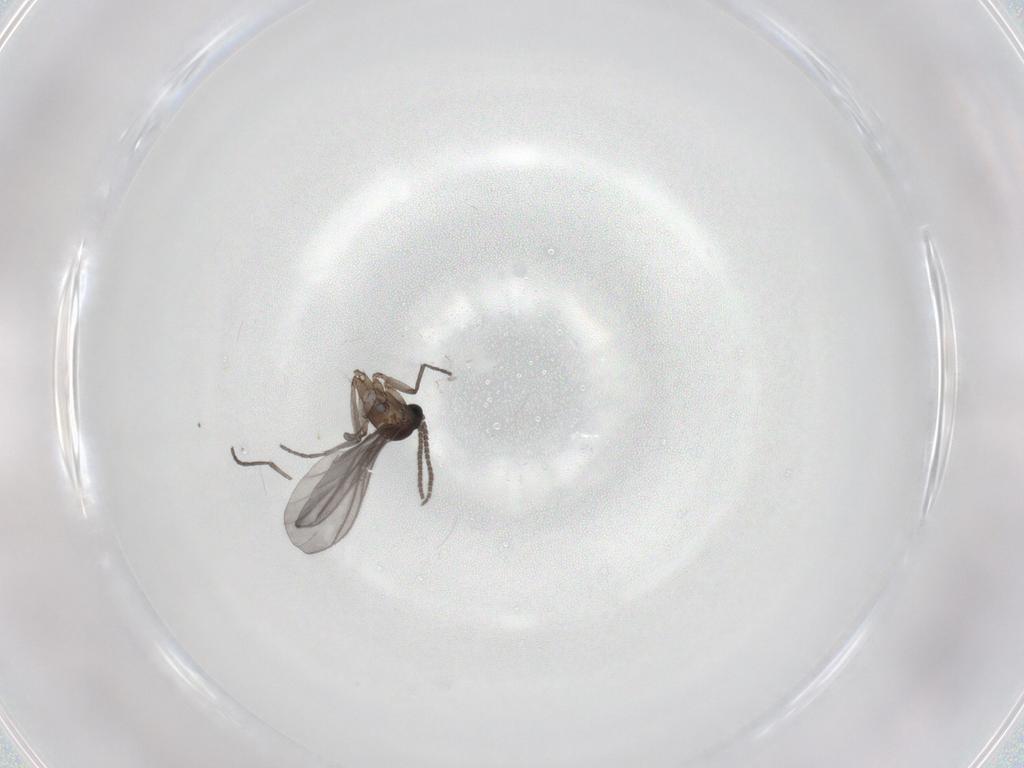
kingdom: Animalia
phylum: Arthropoda
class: Insecta
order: Diptera
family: Sciaridae
